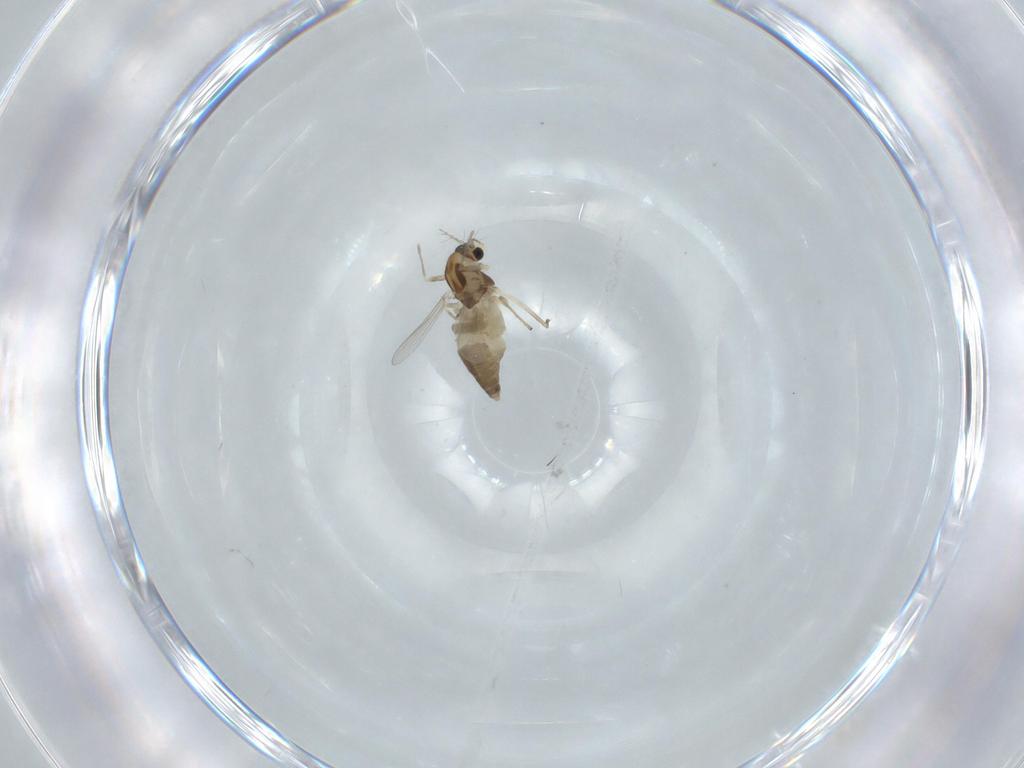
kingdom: Animalia
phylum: Arthropoda
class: Insecta
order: Diptera
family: Chironomidae
